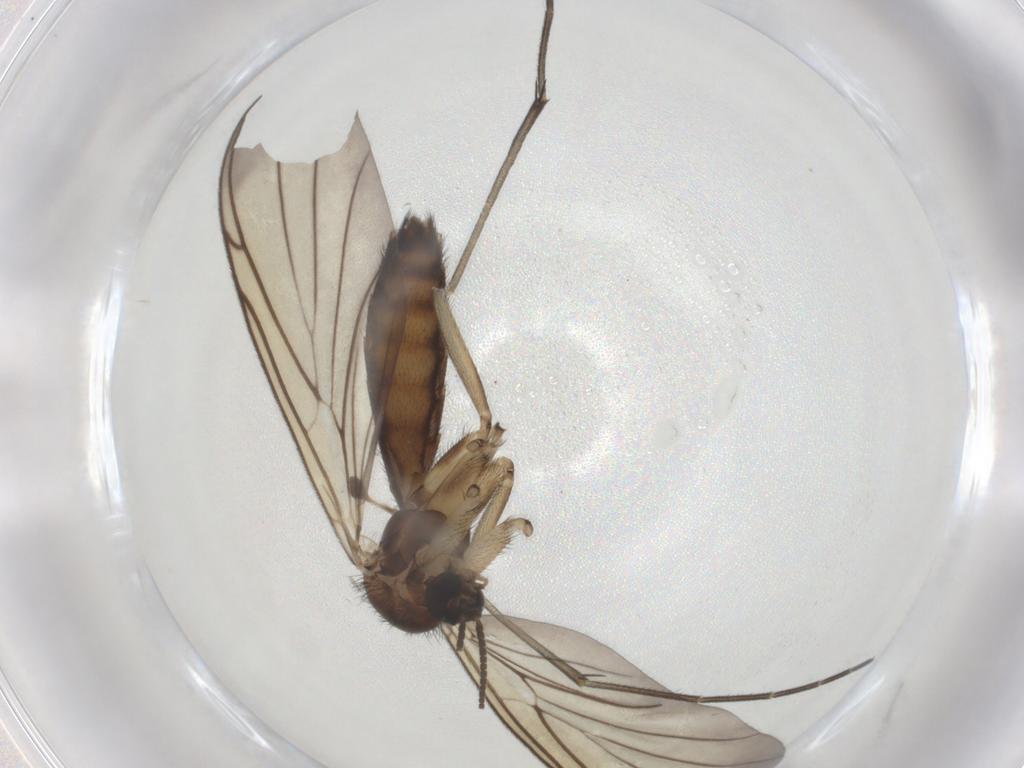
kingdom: Animalia
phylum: Arthropoda
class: Insecta
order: Diptera
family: Keroplatidae
